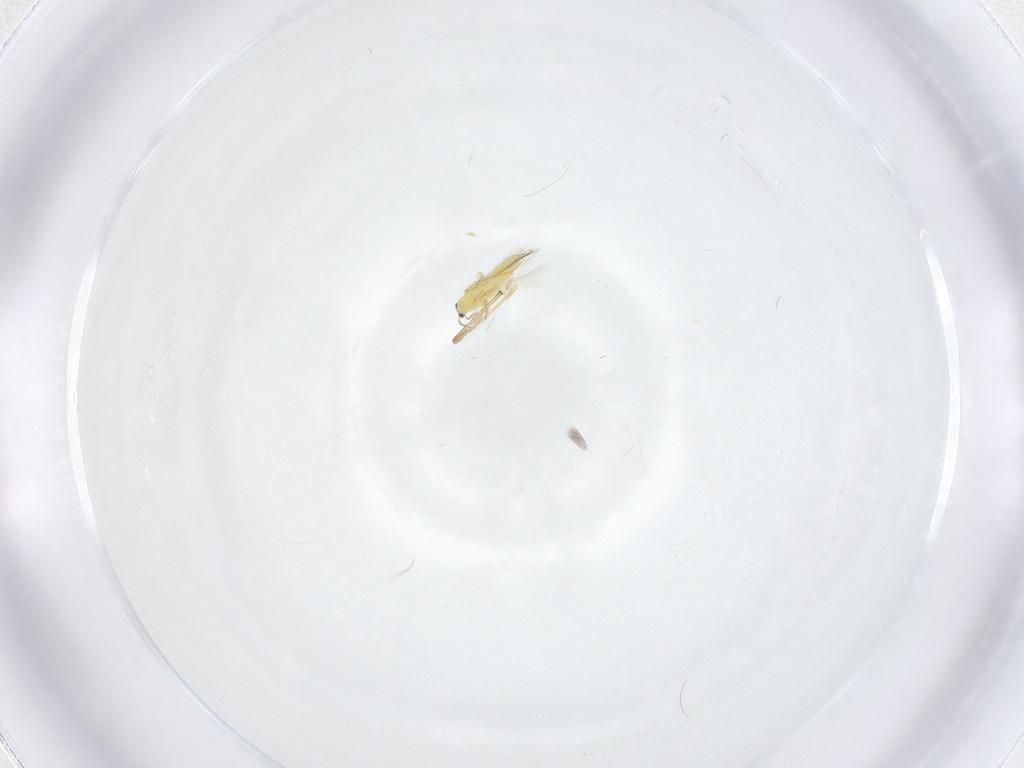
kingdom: Animalia
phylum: Arthropoda
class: Insecta
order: Diptera
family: Chironomidae
